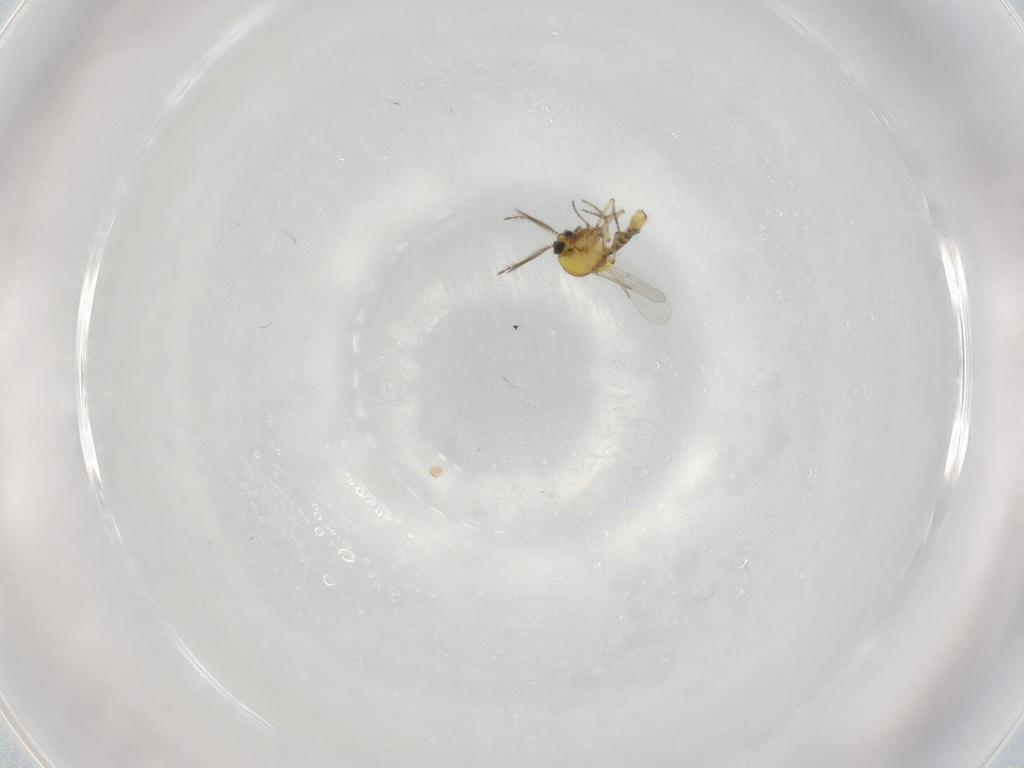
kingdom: Animalia
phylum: Arthropoda
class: Insecta
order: Diptera
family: Ceratopogonidae
